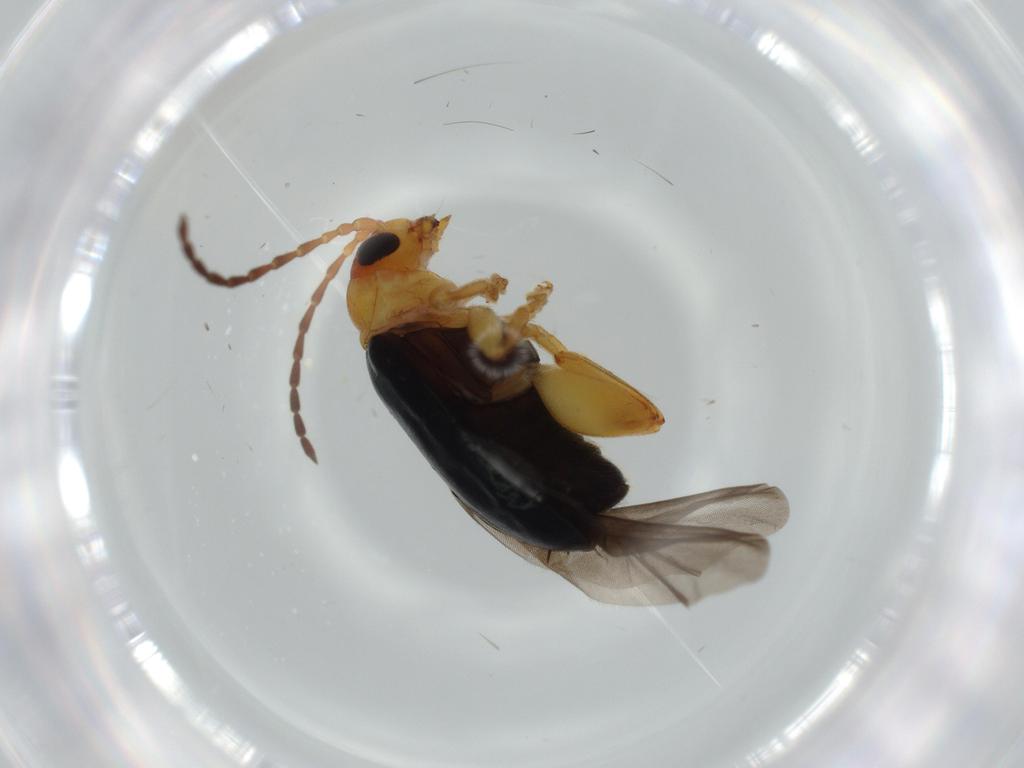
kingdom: Animalia
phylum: Arthropoda
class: Insecta
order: Coleoptera
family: Chrysomelidae
